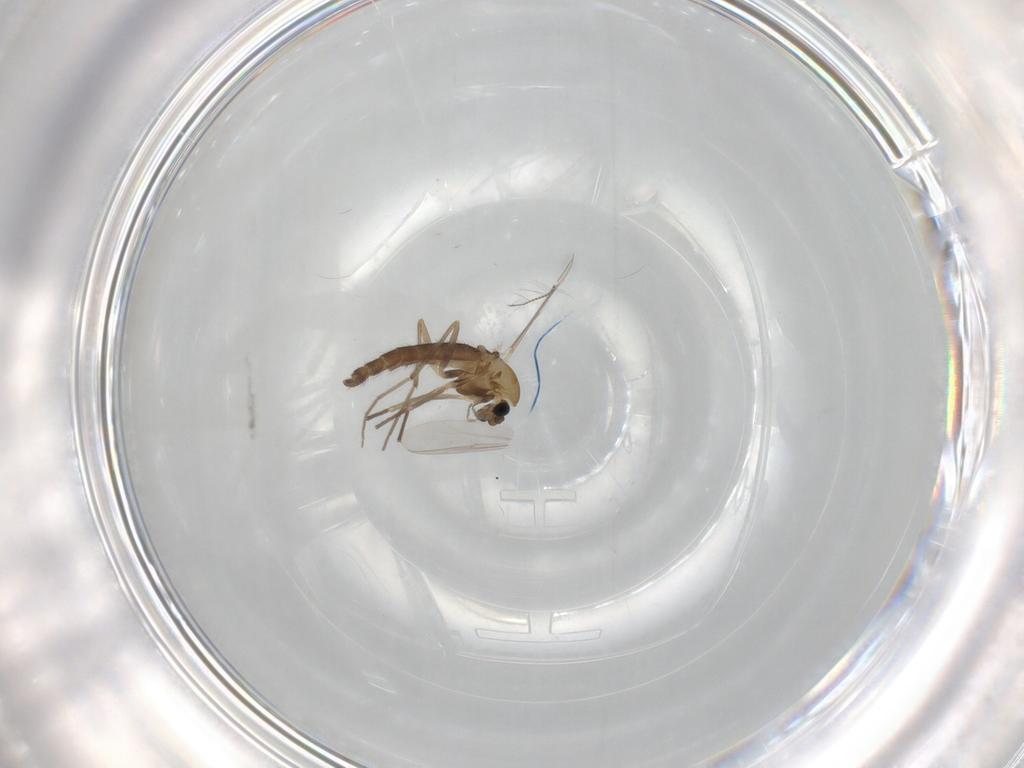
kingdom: Animalia
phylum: Arthropoda
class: Insecta
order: Diptera
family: Chironomidae
